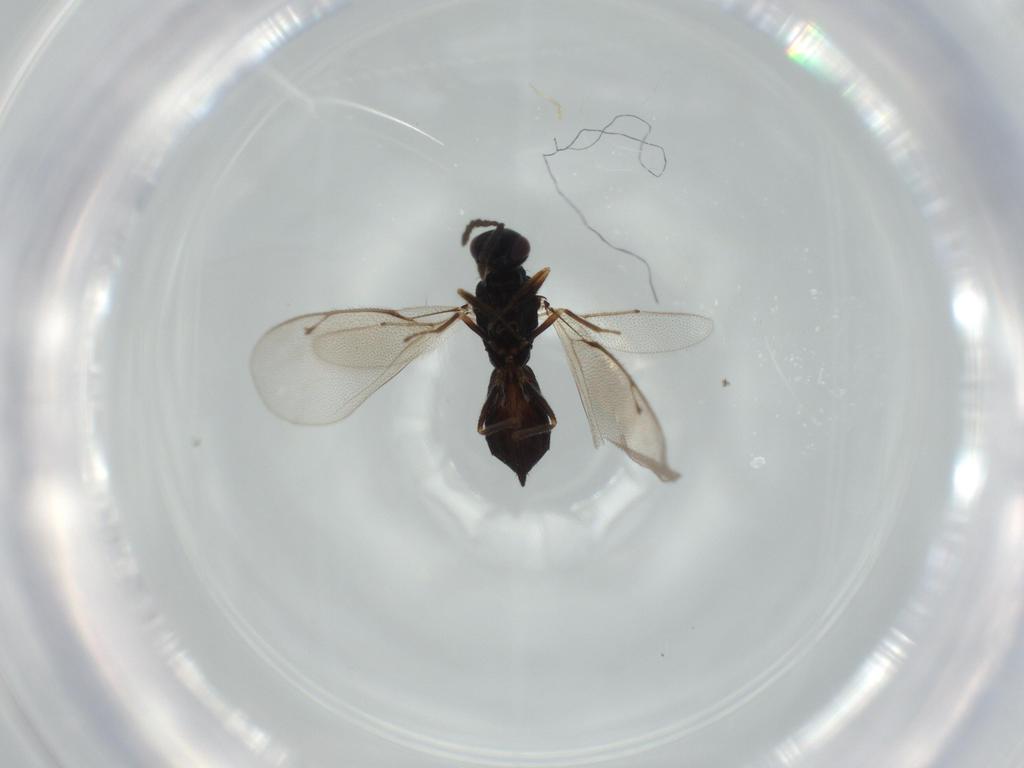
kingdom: Animalia
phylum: Arthropoda
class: Insecta
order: Hymenoptera
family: Eulophidae
